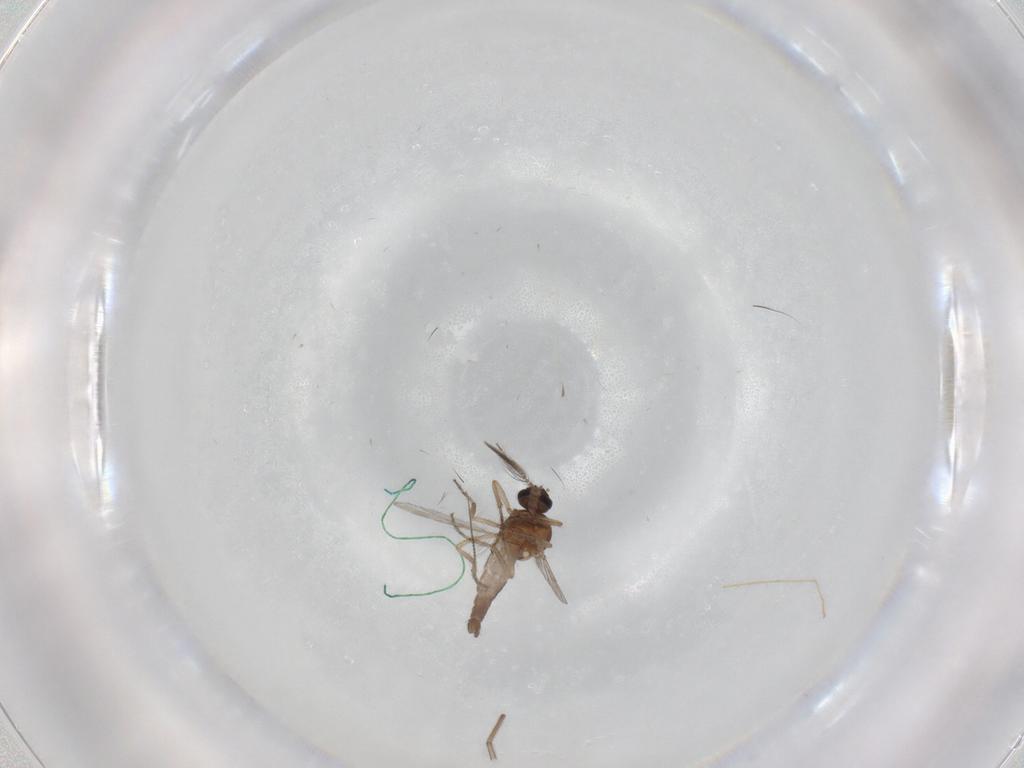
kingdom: Animalia
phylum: Arthropoda
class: Insecta
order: Diptera
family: Chironomidae
